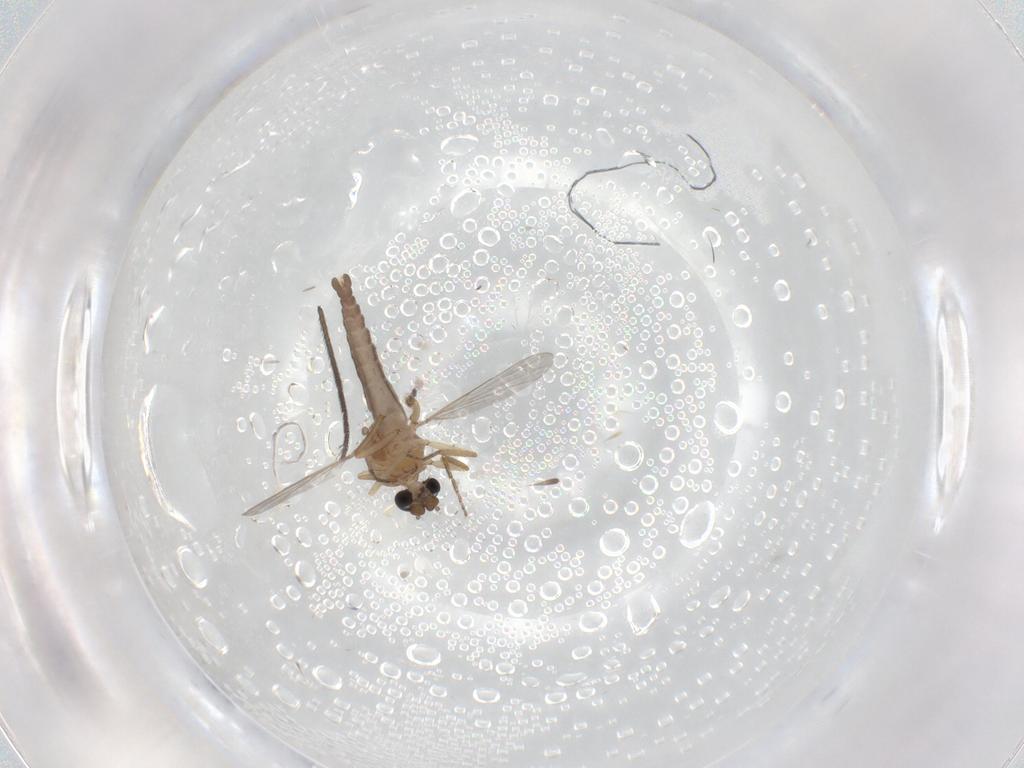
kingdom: Animalia
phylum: Arthropoda
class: Insecta
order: Diptera
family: Ceratopogonidae
